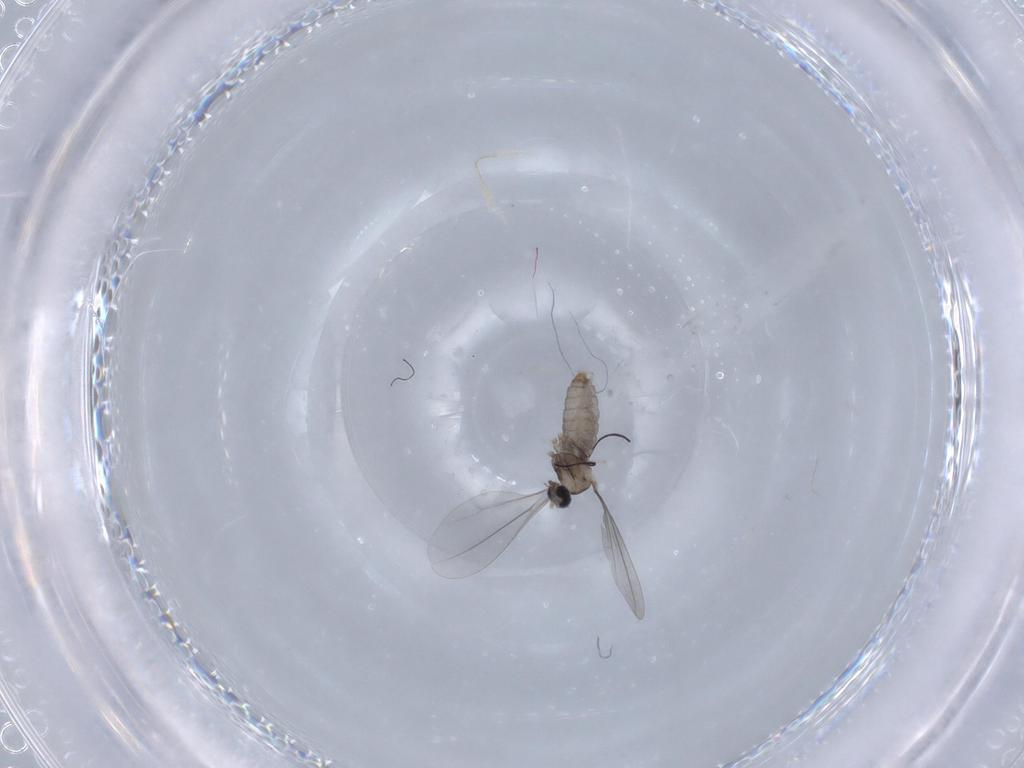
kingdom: Animalia
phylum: Arthropoda
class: Insecta
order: Diptera
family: Cecidomyiidae
